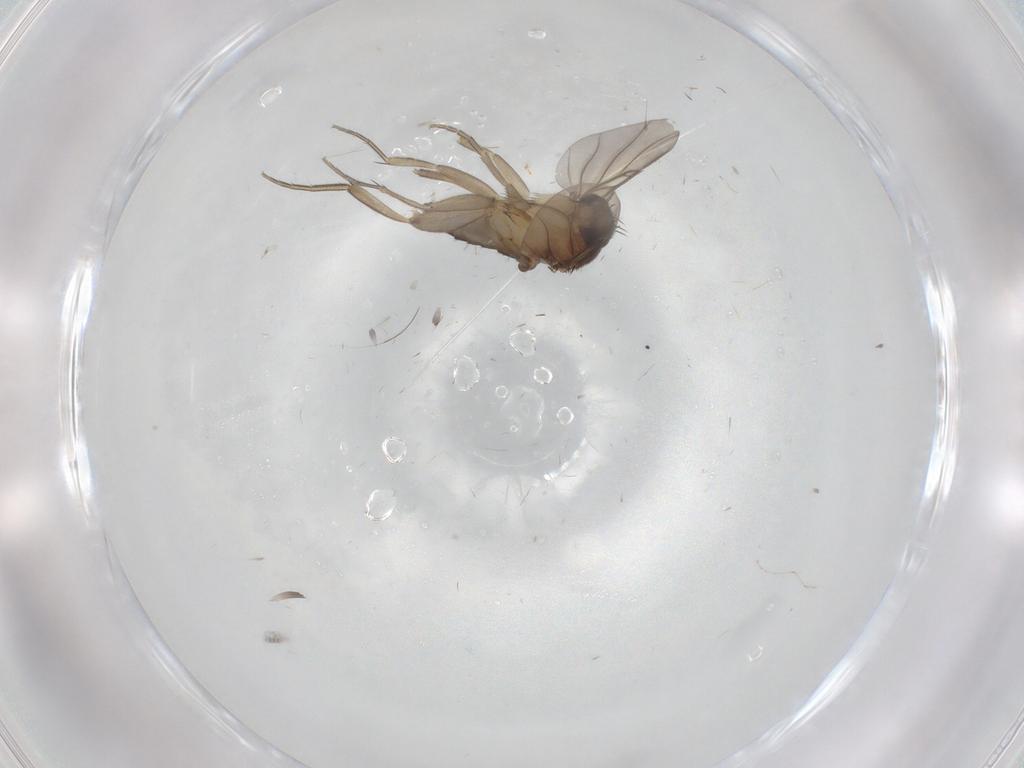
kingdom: Animalia
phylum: Arthropoda
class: Insecta
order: Diptera
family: Phoridae
